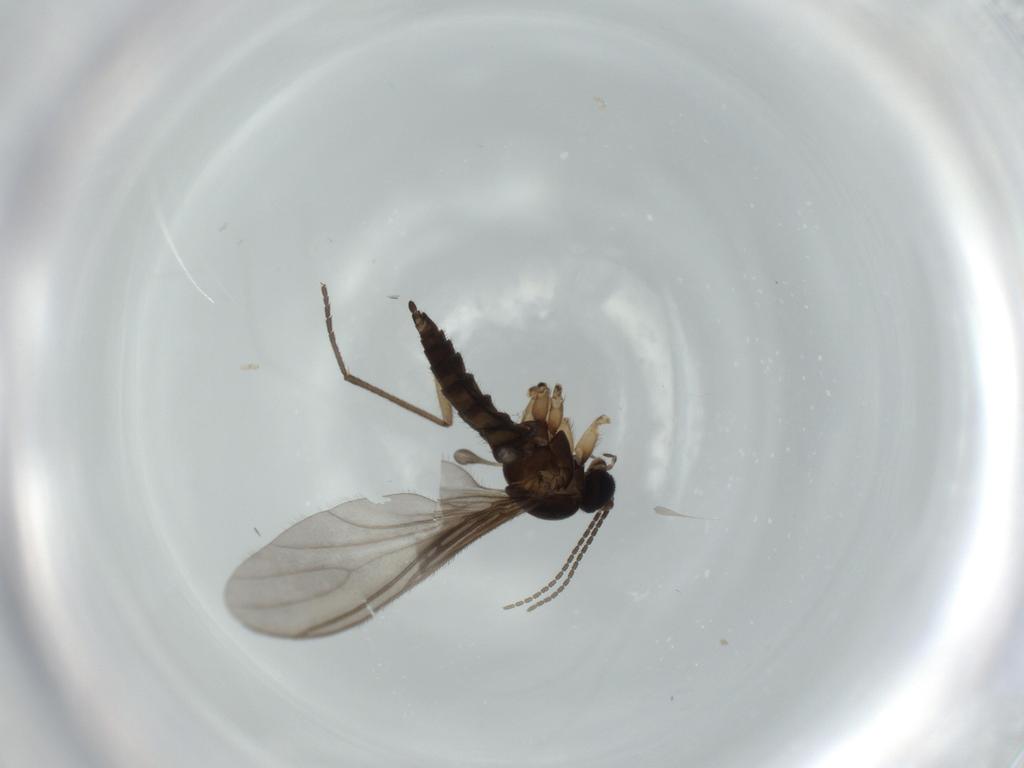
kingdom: Animalia
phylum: Arthropoda
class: Insecta
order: Diptera
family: Sciaridae
